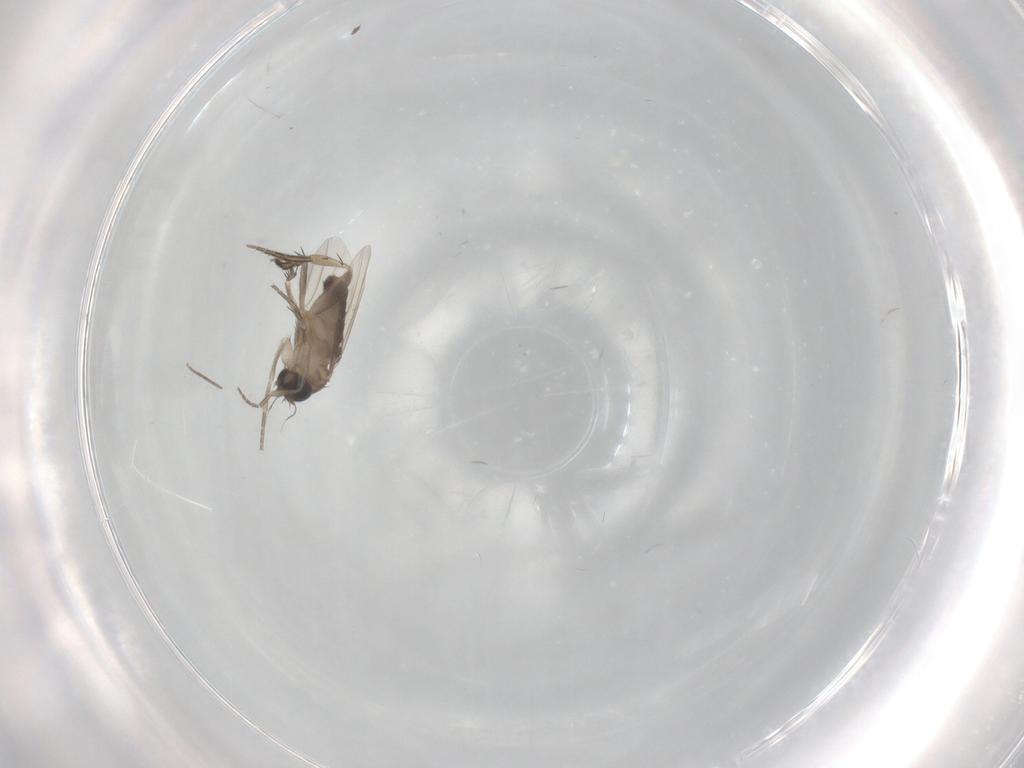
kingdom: Animalia
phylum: Arthropoda
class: Insecta
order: Diptera
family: Phoridae
